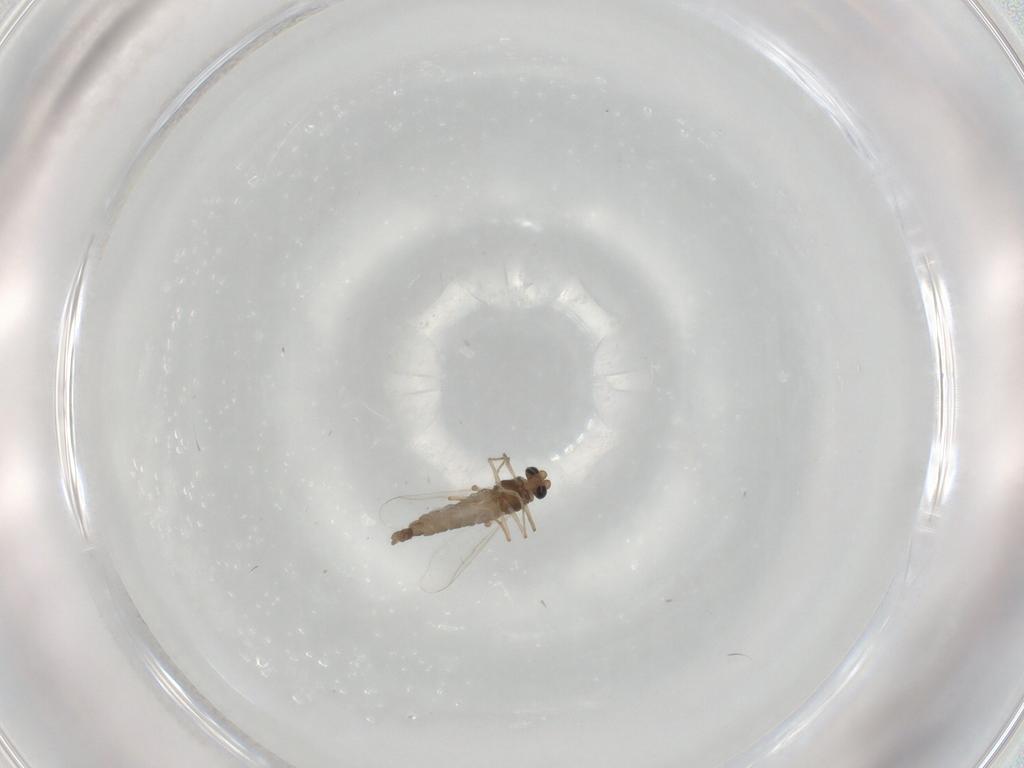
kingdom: Animalia
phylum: Arthropoda
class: Insecta
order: Diptera
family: Chironomidae
